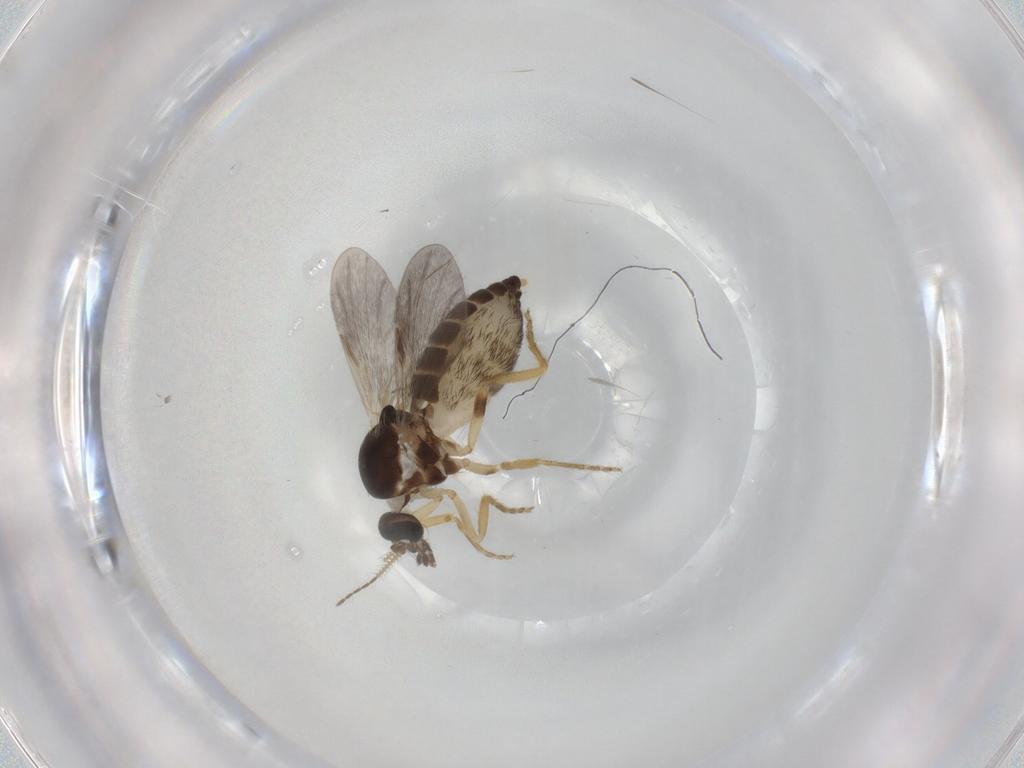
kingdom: Animalia
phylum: Arthropoda
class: Insecta
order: Diptera
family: Ceratopogonidae
